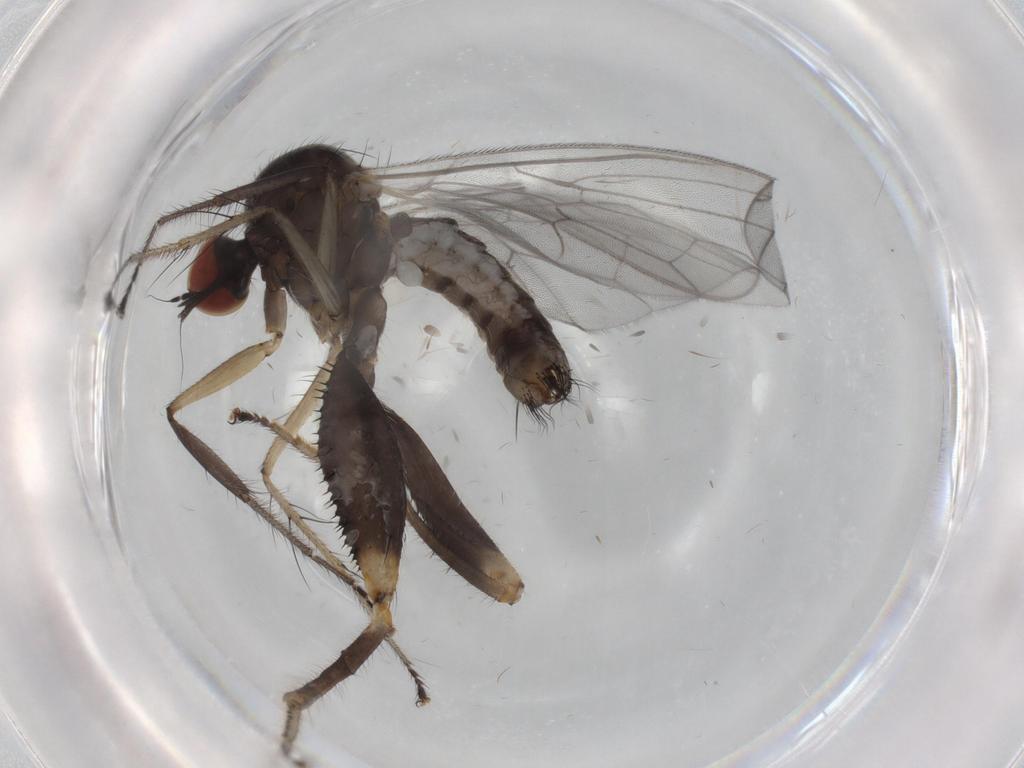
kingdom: Animalia
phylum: Arthropoda
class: Insecta
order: Diptera
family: Hybotidae
